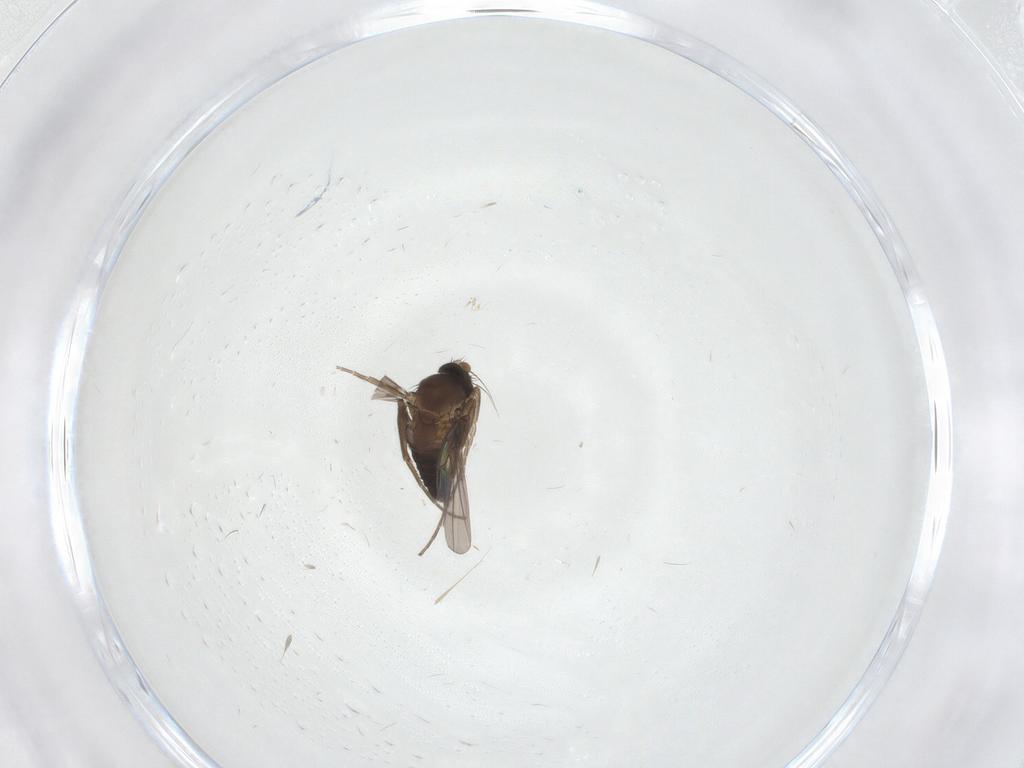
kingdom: Animalia
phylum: Arthropoda
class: Insecta
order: Diptera
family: Phoridae
